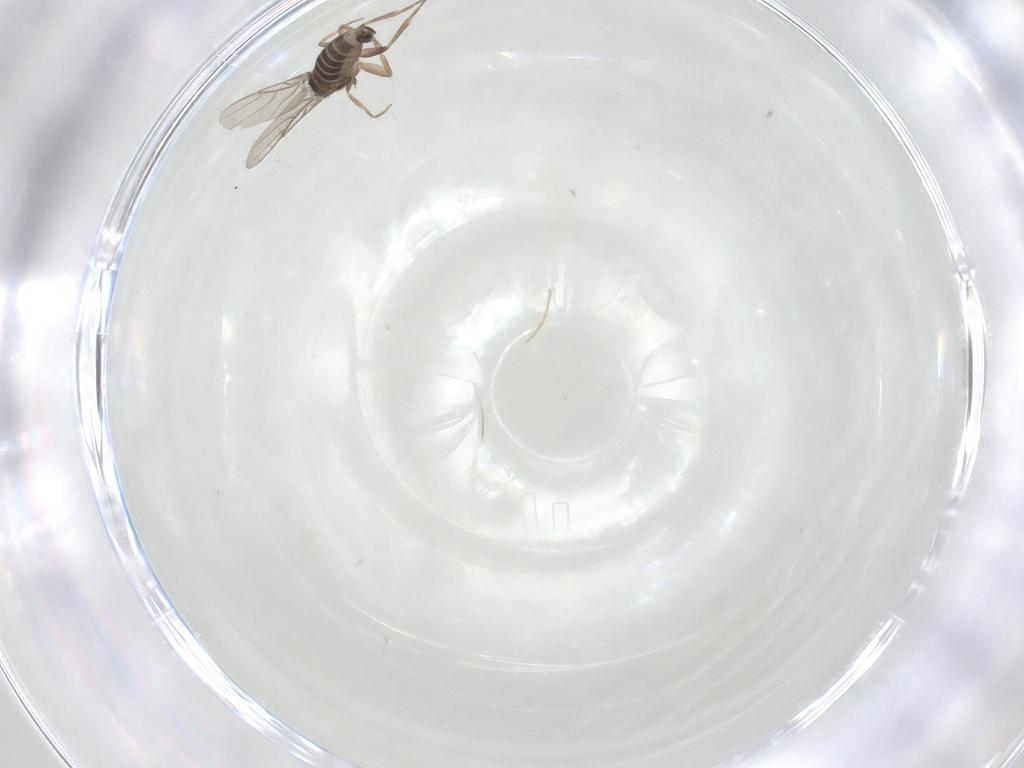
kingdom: Animalia
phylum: Arthropoda
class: Insecta
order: Diptera
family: Phoridae
